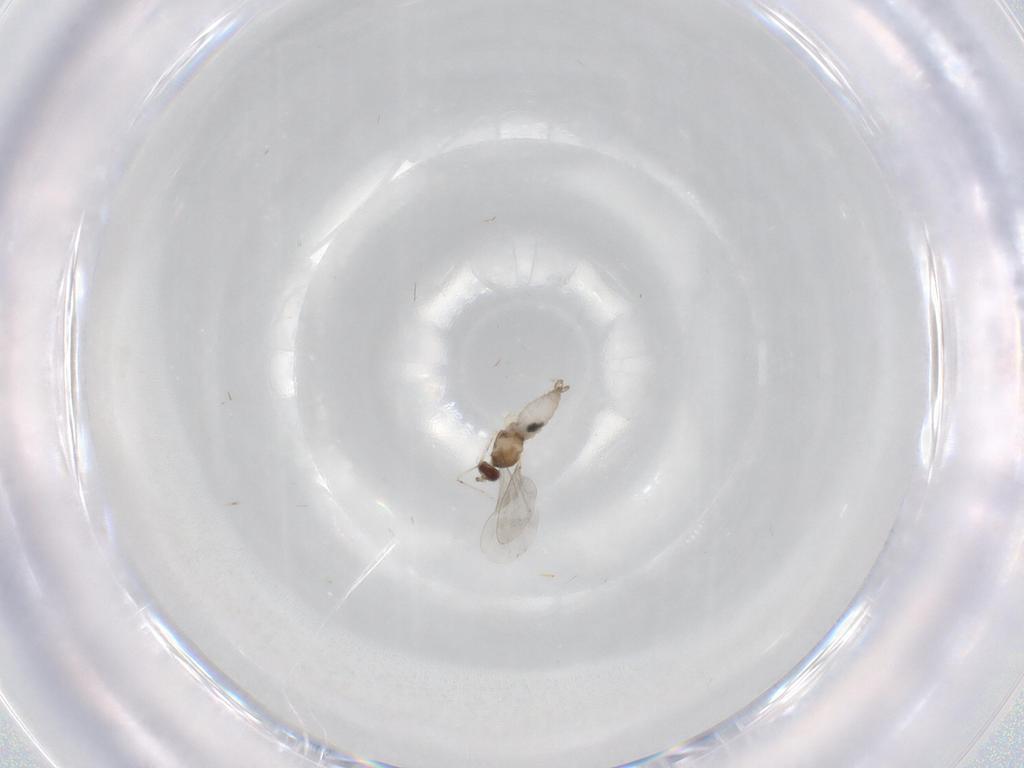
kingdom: Animalia
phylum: Arthropoda
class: Insecta
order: Diptera
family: Cecidomyiidae
